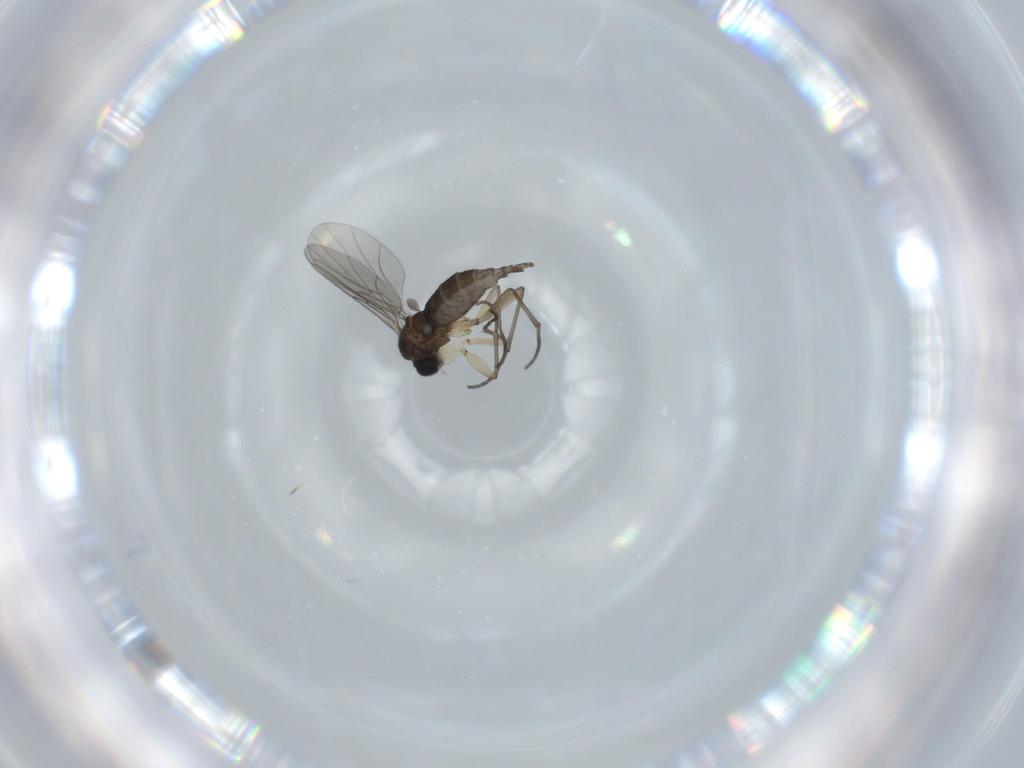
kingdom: Animalia
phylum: Arthropoda
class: Insecta
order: Diptera
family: Sciaridae
